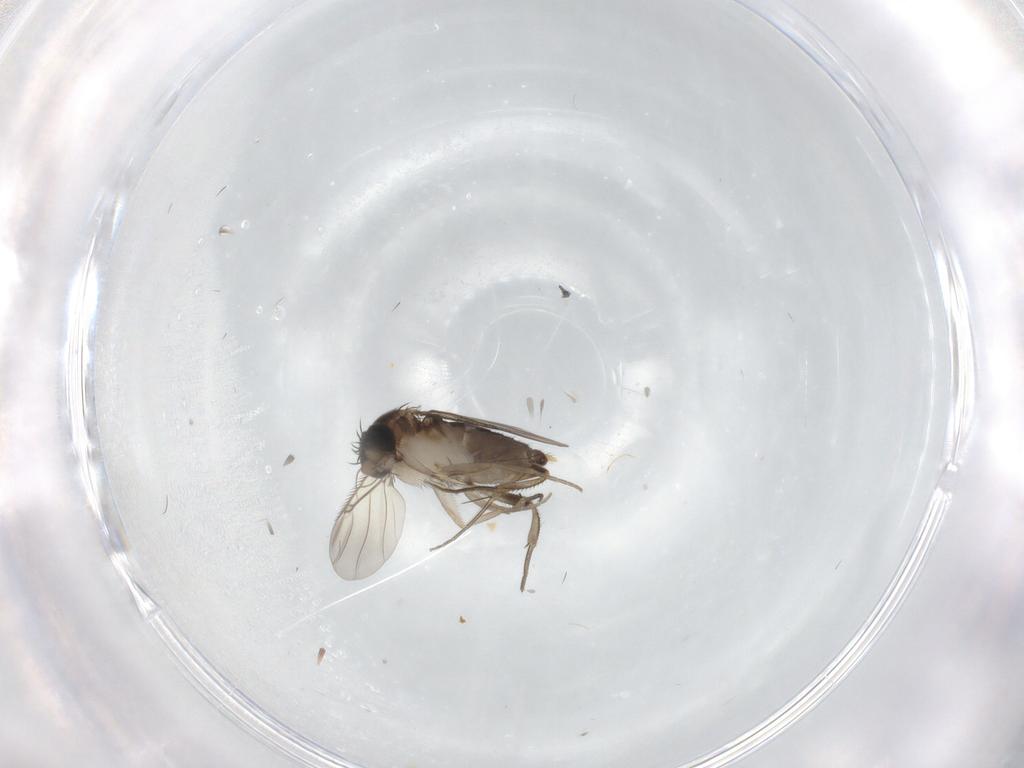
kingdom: Animalia
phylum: Arthropoda
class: Insecta
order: Diptera
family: Phoridae
